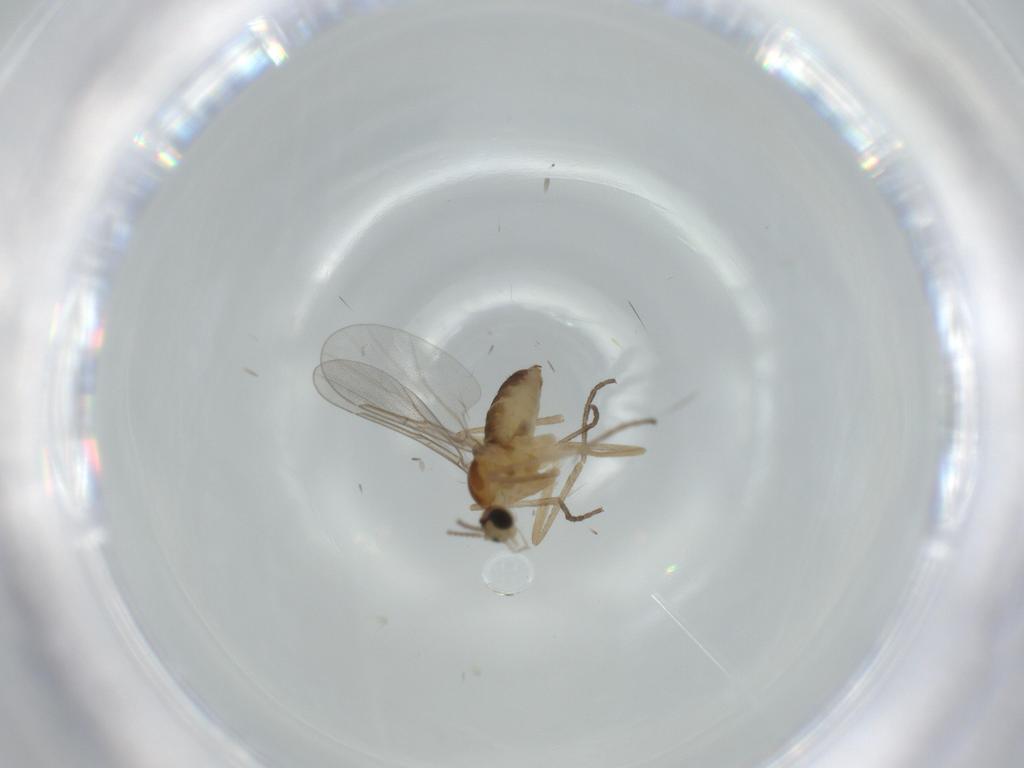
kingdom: Animalia
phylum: Arthropoda
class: Insecta
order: Diptera
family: Cecidomyiidae
